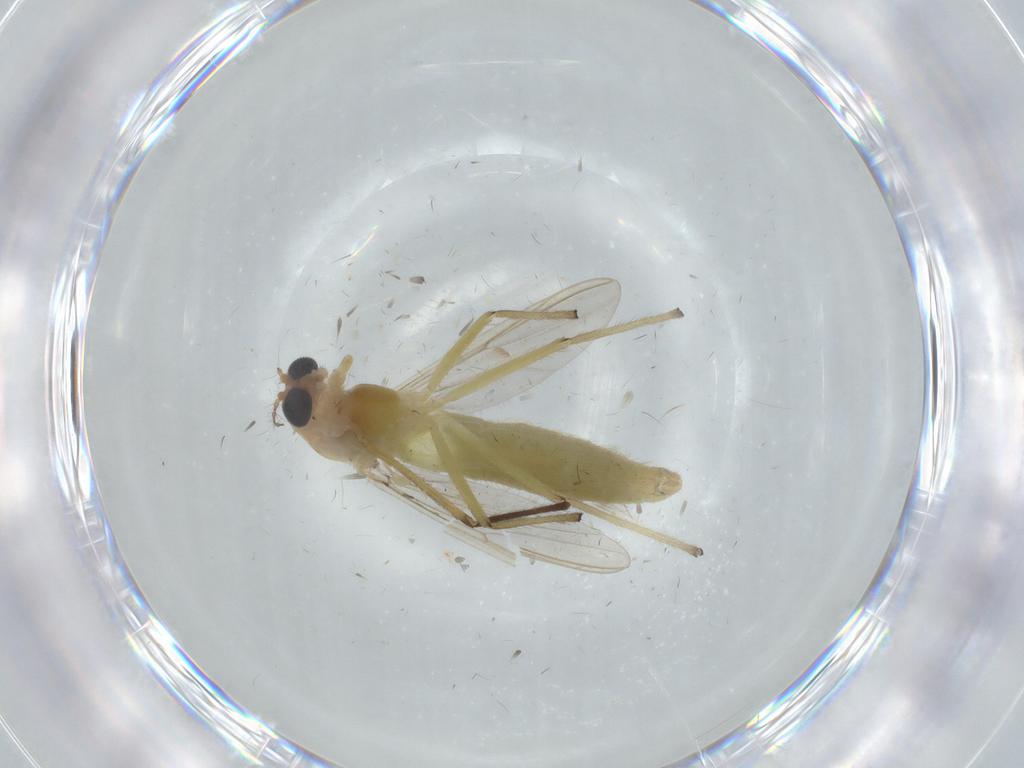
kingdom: Animalia
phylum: Arthropoda
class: Insecta
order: Diptera
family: Chironomidae
